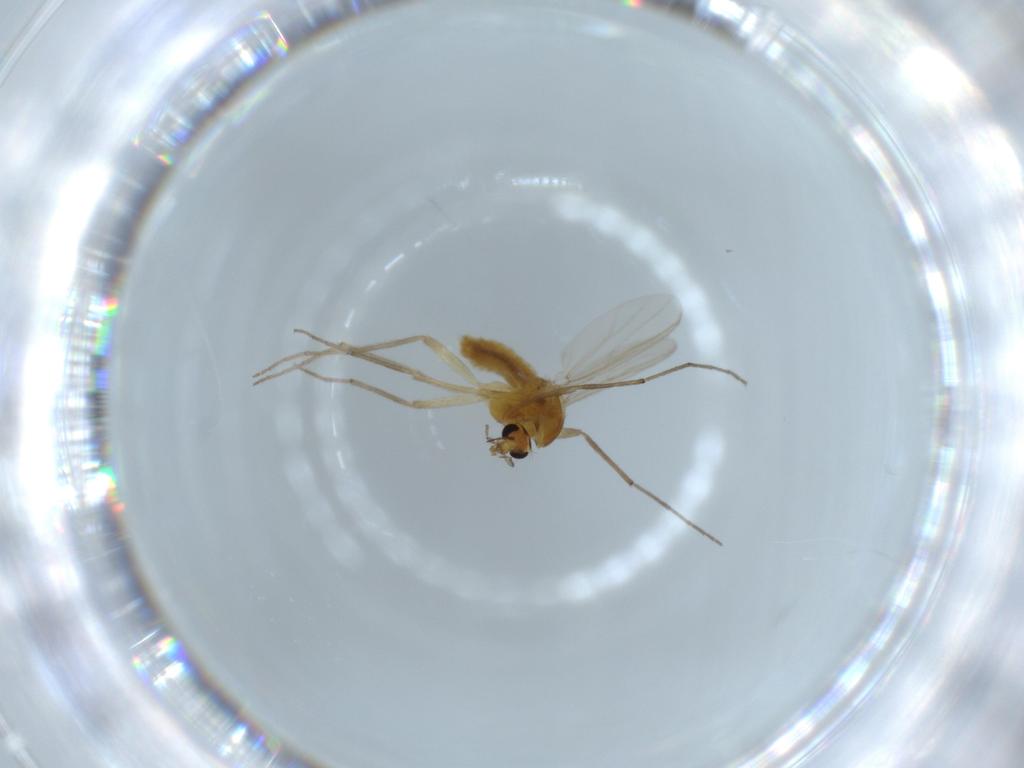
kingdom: Animalia
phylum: Arthropoda
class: Insecta
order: Diptera
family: Chironomidae
